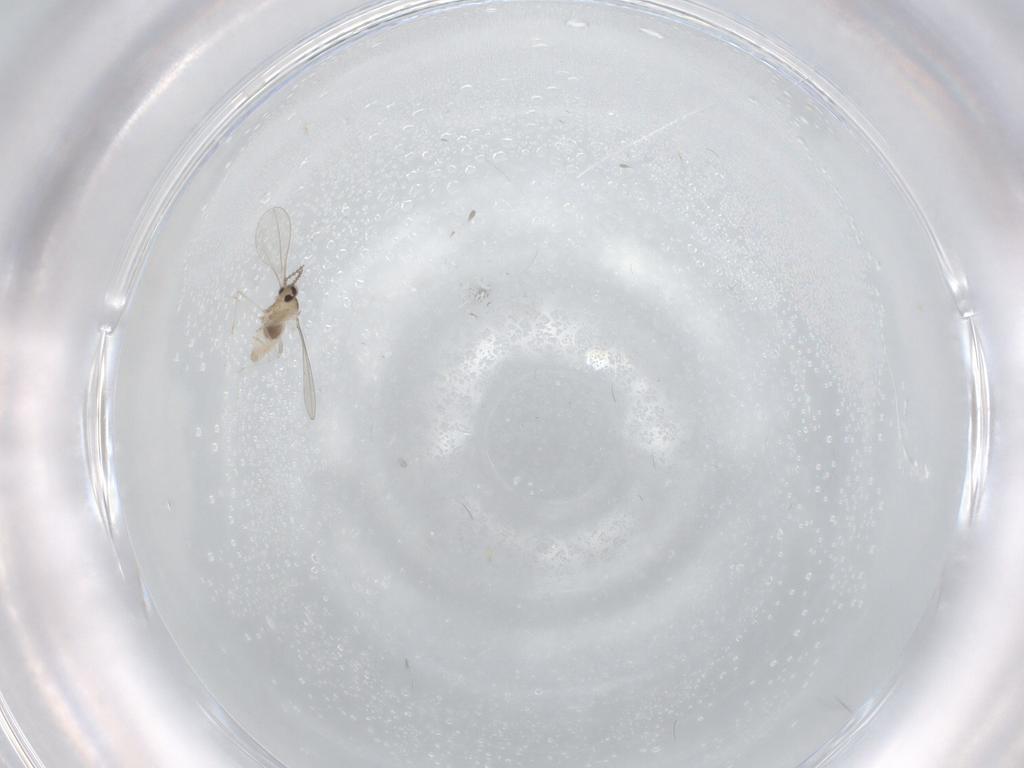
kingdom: Animalia
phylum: Arthropoda
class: Insecta
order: Diptera
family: Cecidomyiidae
